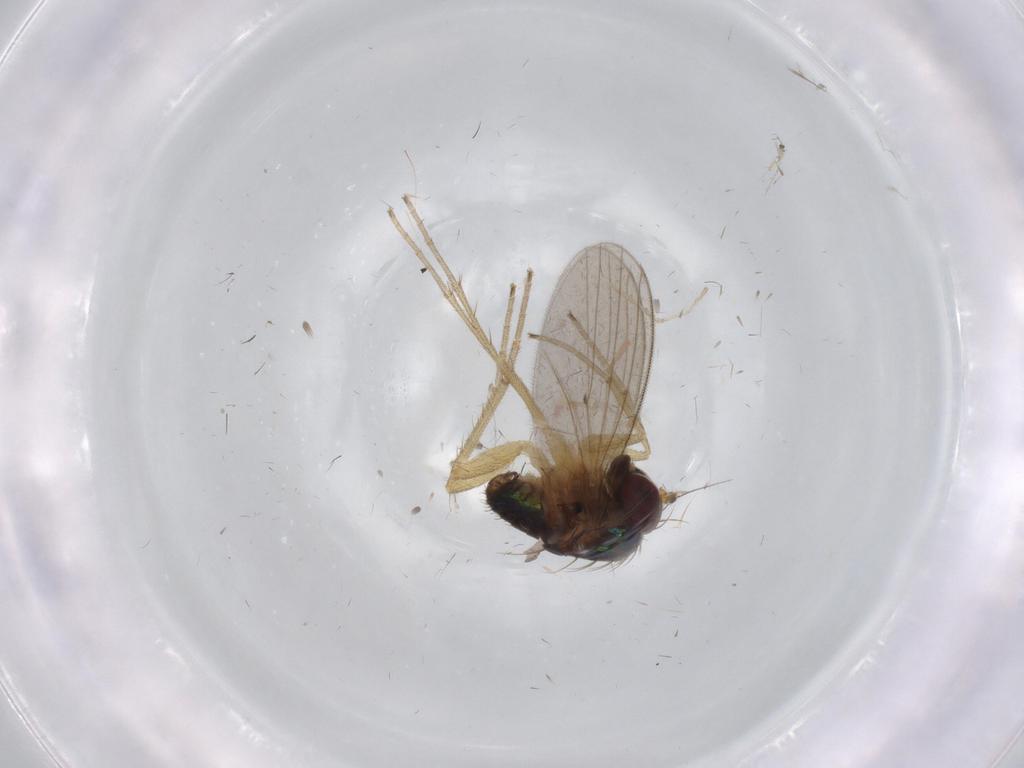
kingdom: Animalia
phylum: Arthropoda
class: Insecta
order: Diptera
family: Dolichopodidae
